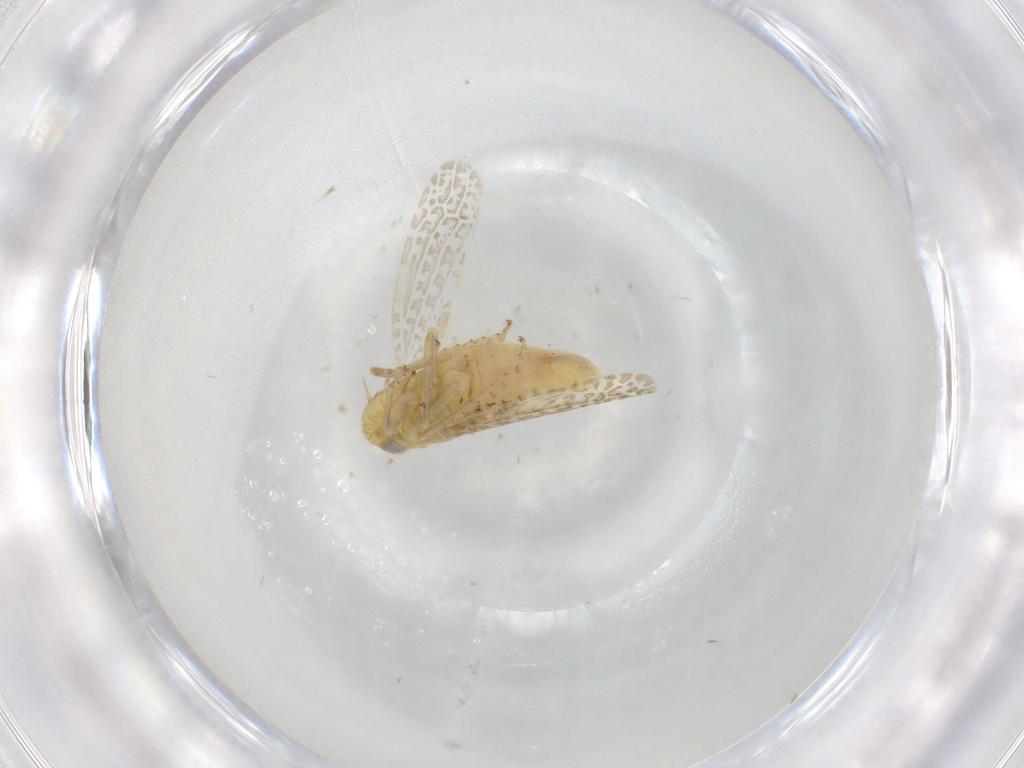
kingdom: Animalia
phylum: Arthropoda
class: Insecta
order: Hemiptera
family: Cicadellidae
